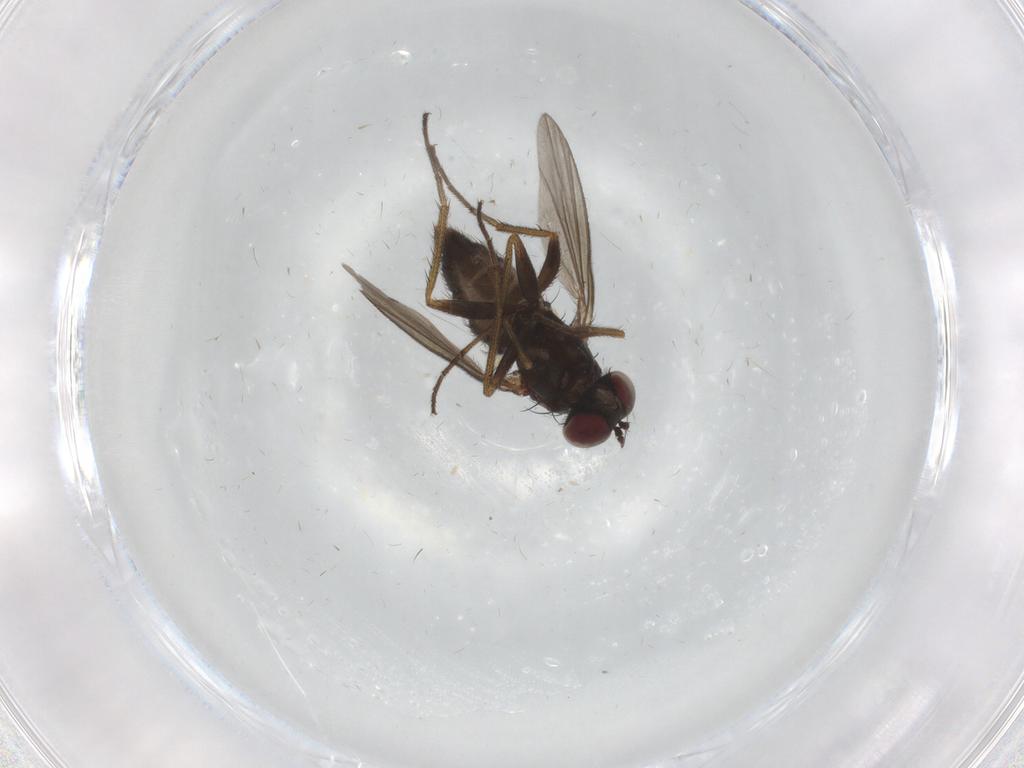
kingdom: Animalia
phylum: Arthropoda
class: Insecta
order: Diptera
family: Dolichopodidae
